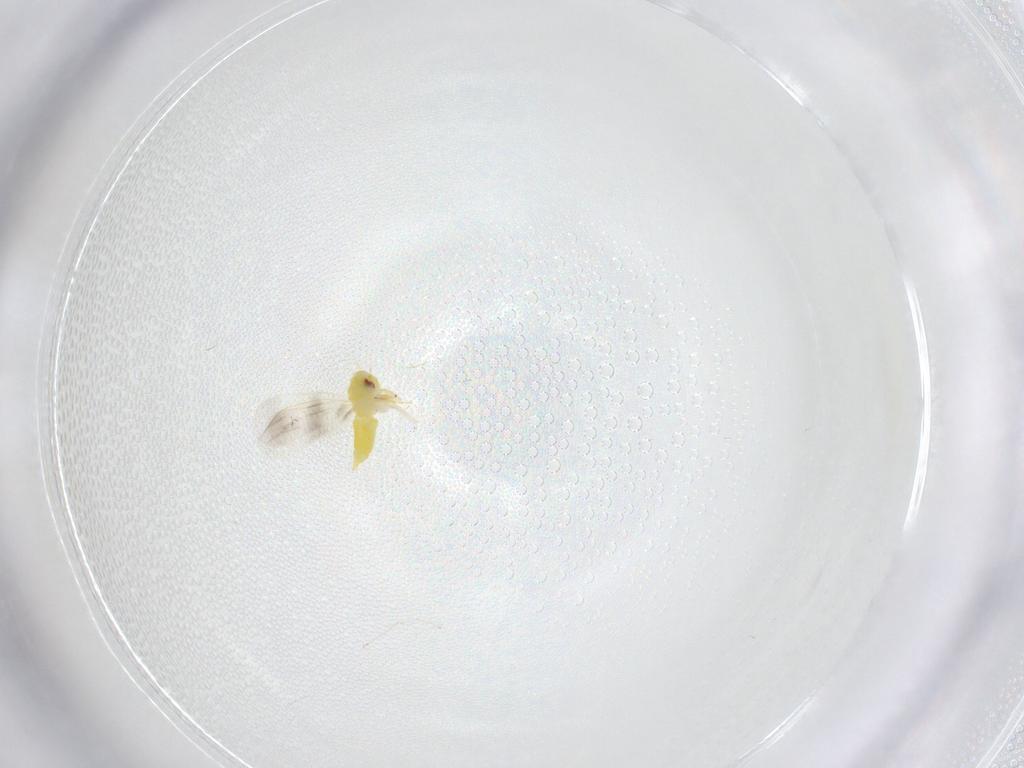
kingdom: Animalia
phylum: Arthropoda
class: Insecta
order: Hemiptera
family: Aleyrodidae
